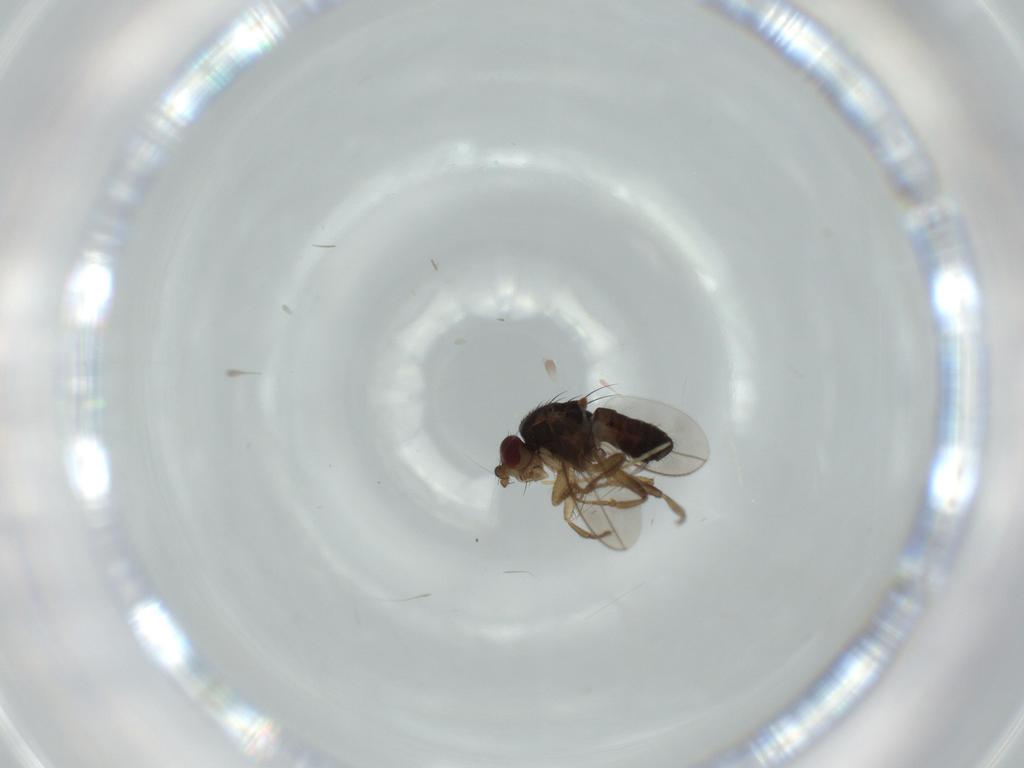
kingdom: Animalia
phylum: Arthropoda
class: Insecta
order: Diptera
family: Sphaeroceridae
